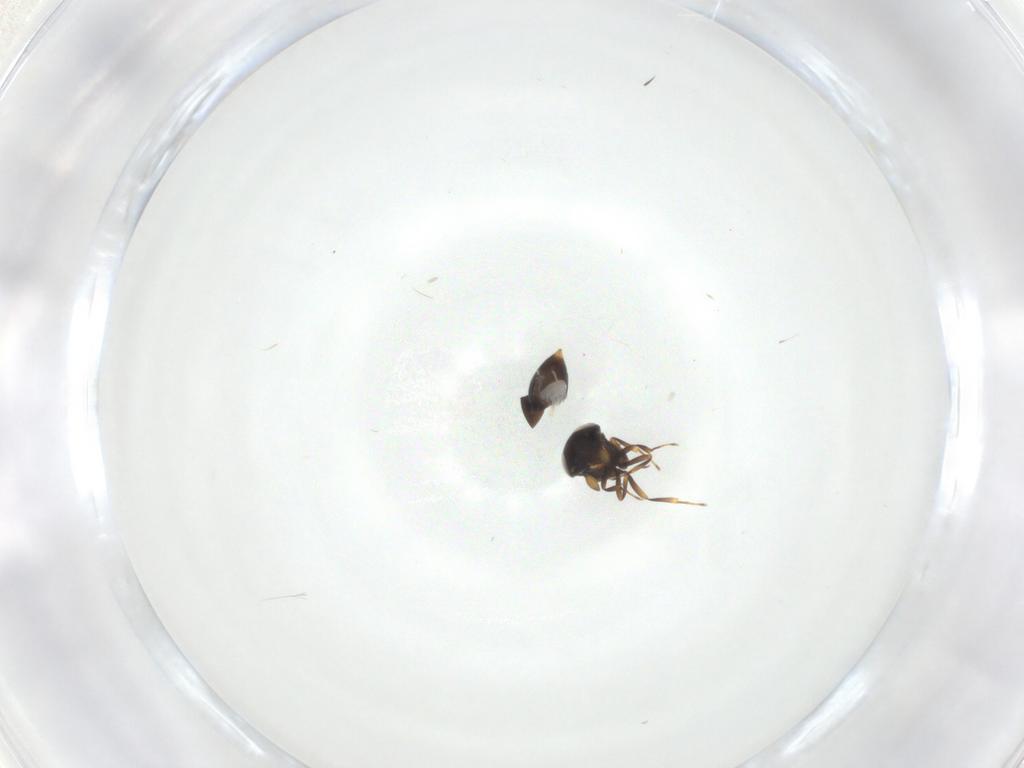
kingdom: Animalia
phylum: Arthropoda
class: Insecta
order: Hymenoptera
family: Scelionidae
